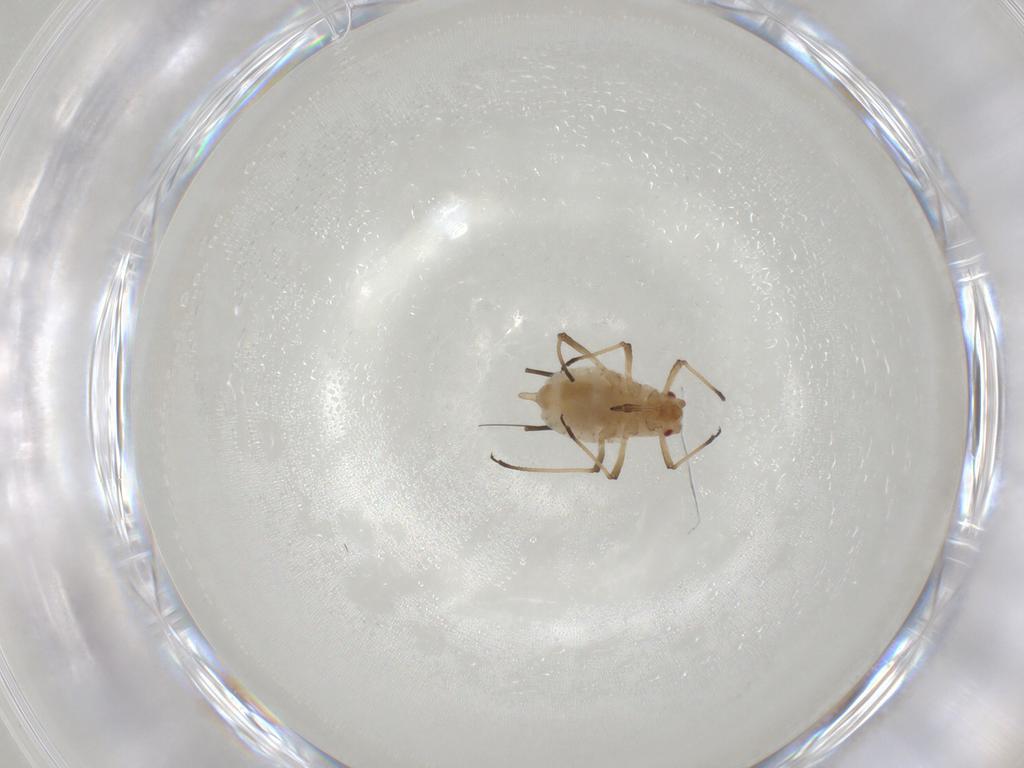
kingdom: Animalia
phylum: Arthropoda
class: Insecta
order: Hemiptera
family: Aphididae
